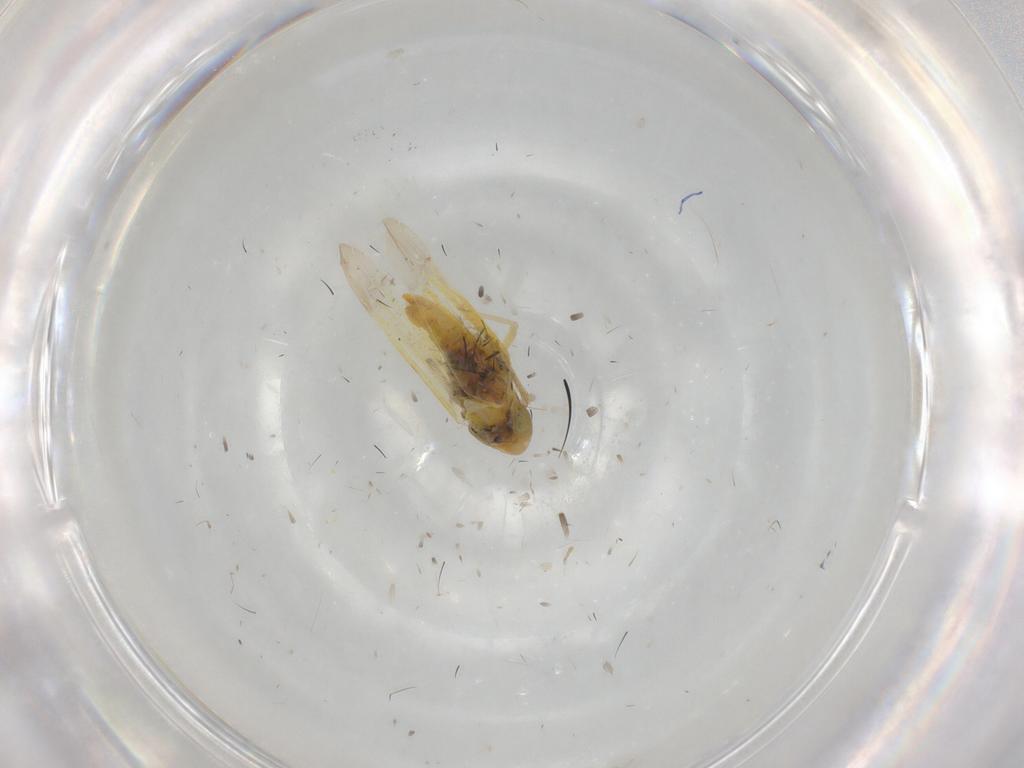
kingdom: Animalia
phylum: Arthropoda
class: Insecta
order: Hemiptera
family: Cicadellidae
